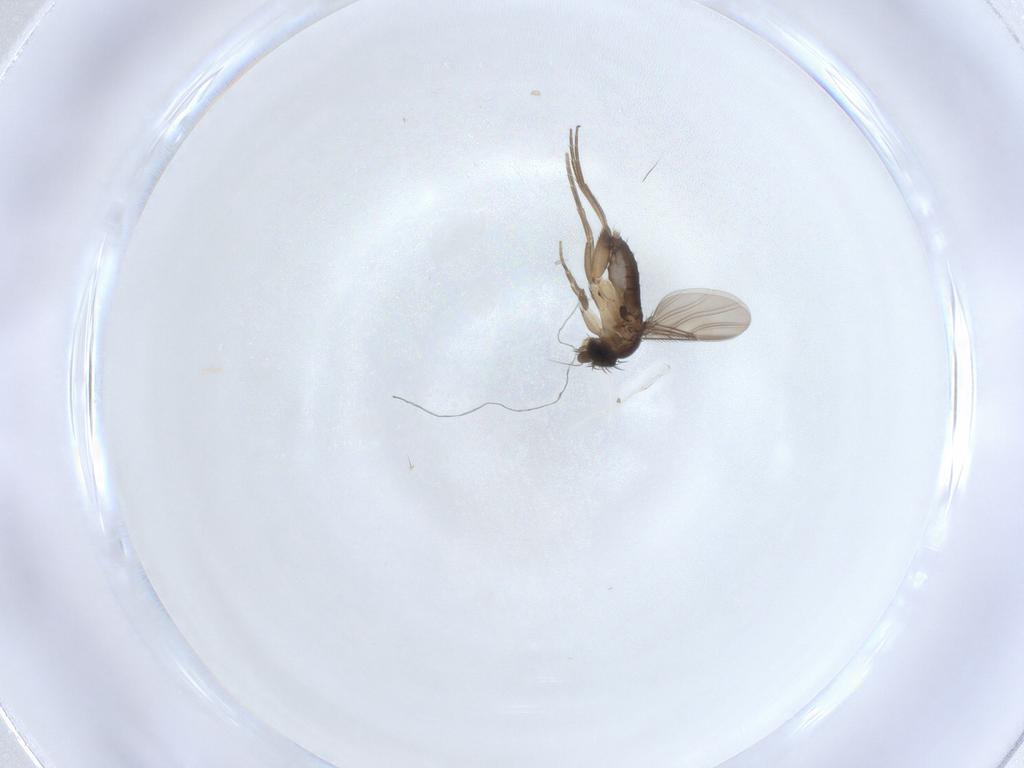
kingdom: Animalia
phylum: Arthropoda
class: Insecta
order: Diptera
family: Phoridae
